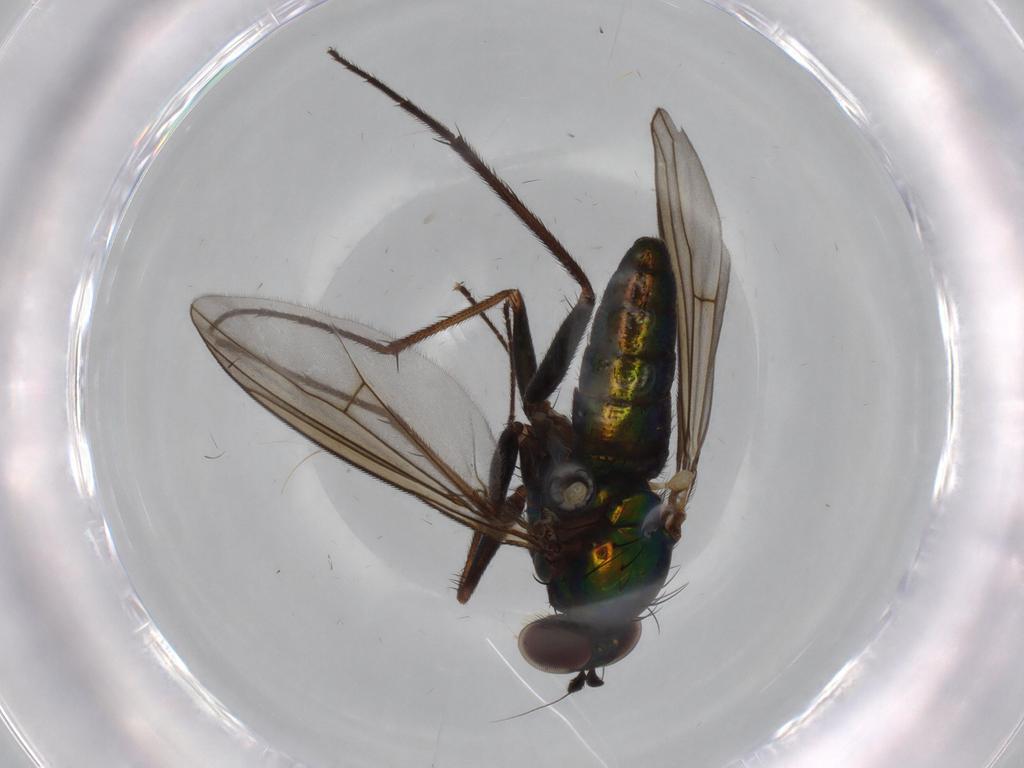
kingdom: Animalia
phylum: Arthropoda
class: Insecta
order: Diptera
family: Dolichopodidae
